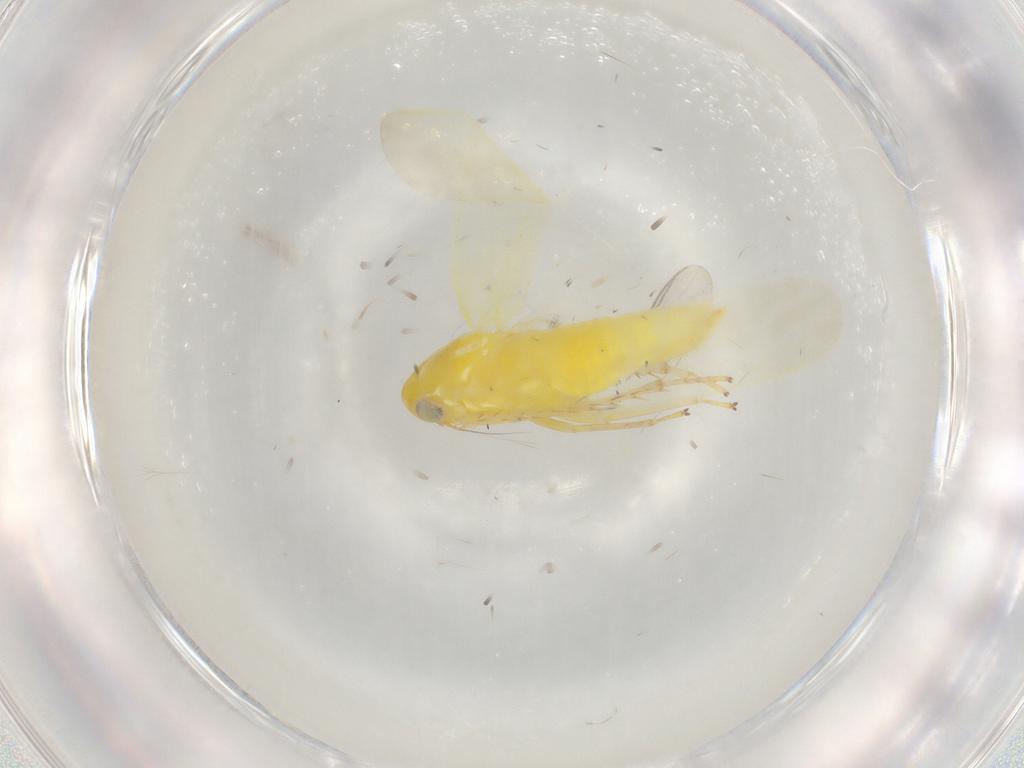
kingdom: Animalia
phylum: Arthropoda
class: Insecta
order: Hemiptera
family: Cicadellidae
